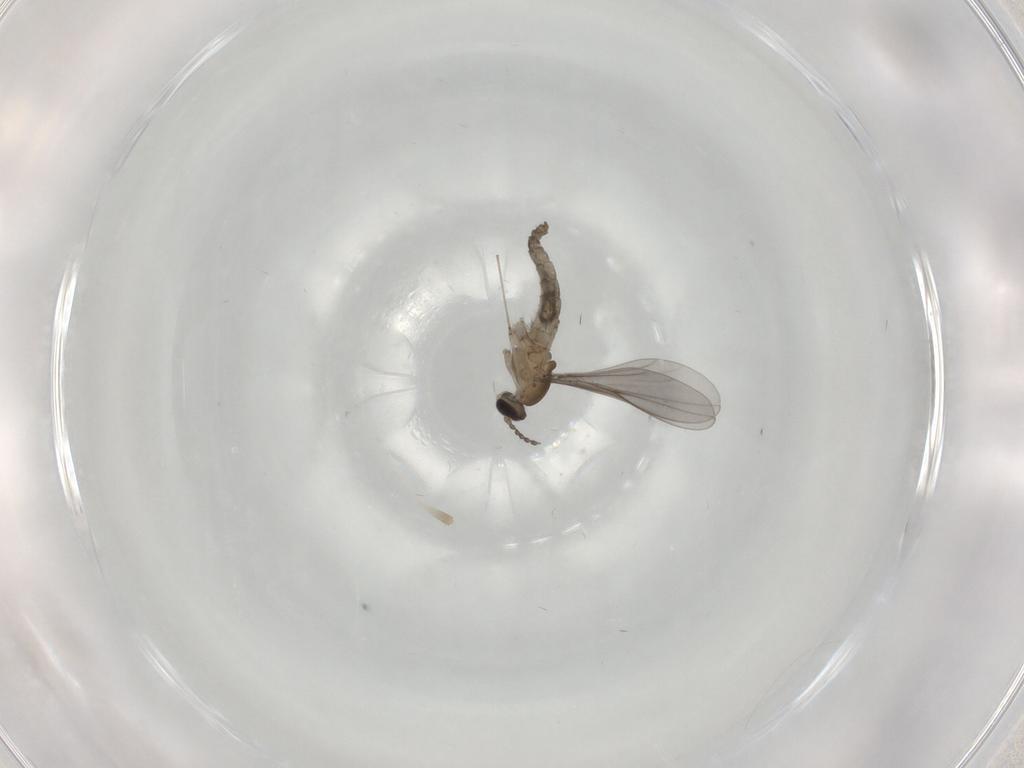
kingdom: Animalia
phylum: Arthropoda
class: Insecta
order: Diptera
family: Cecidomyiidae
